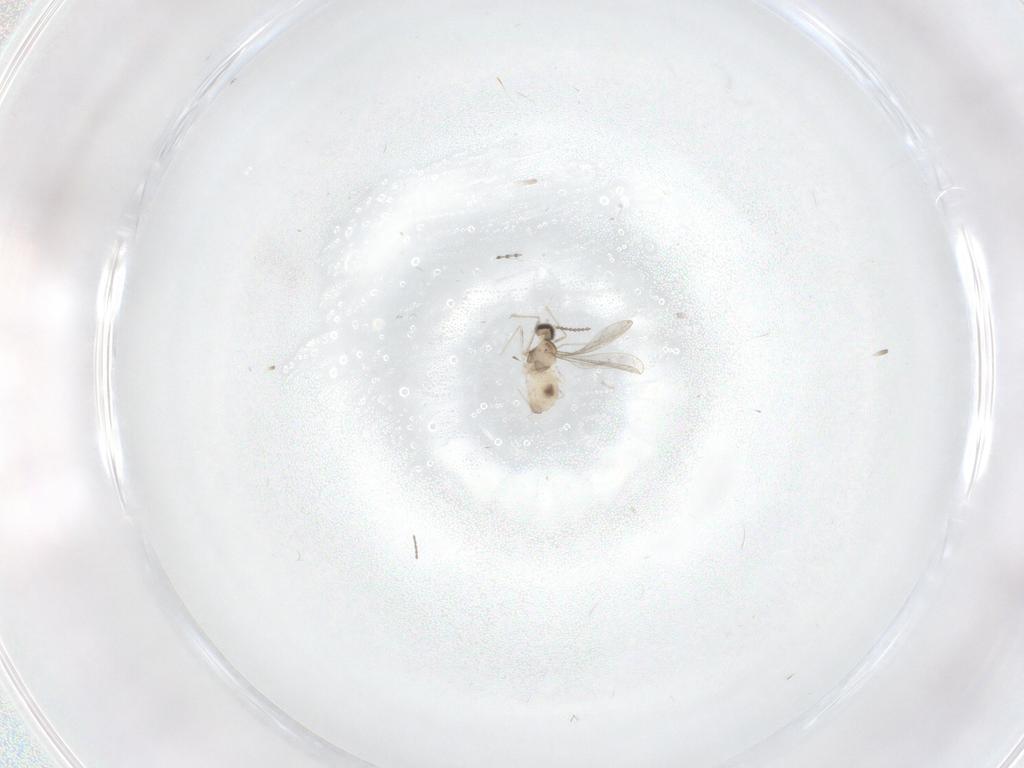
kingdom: Animalia
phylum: Arthropoda
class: Insecta
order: Diptera
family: Cecidomyiidae
